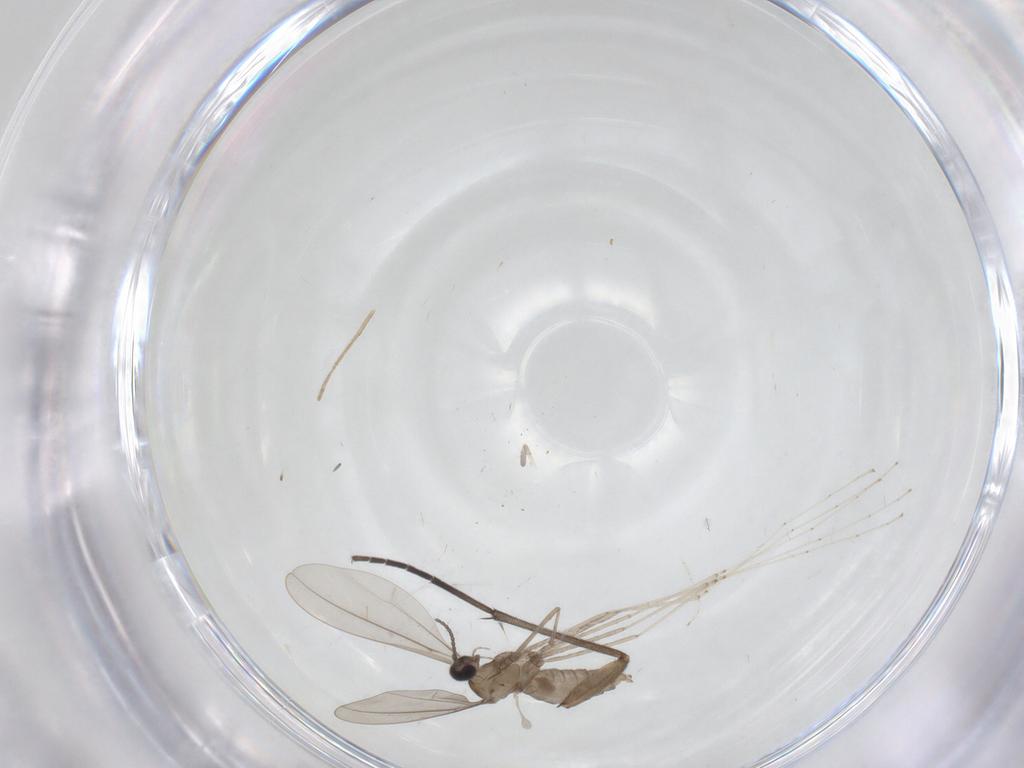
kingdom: Animalia
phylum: Arthropoda
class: Insecta
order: Diptera
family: Cecidomyiidae
